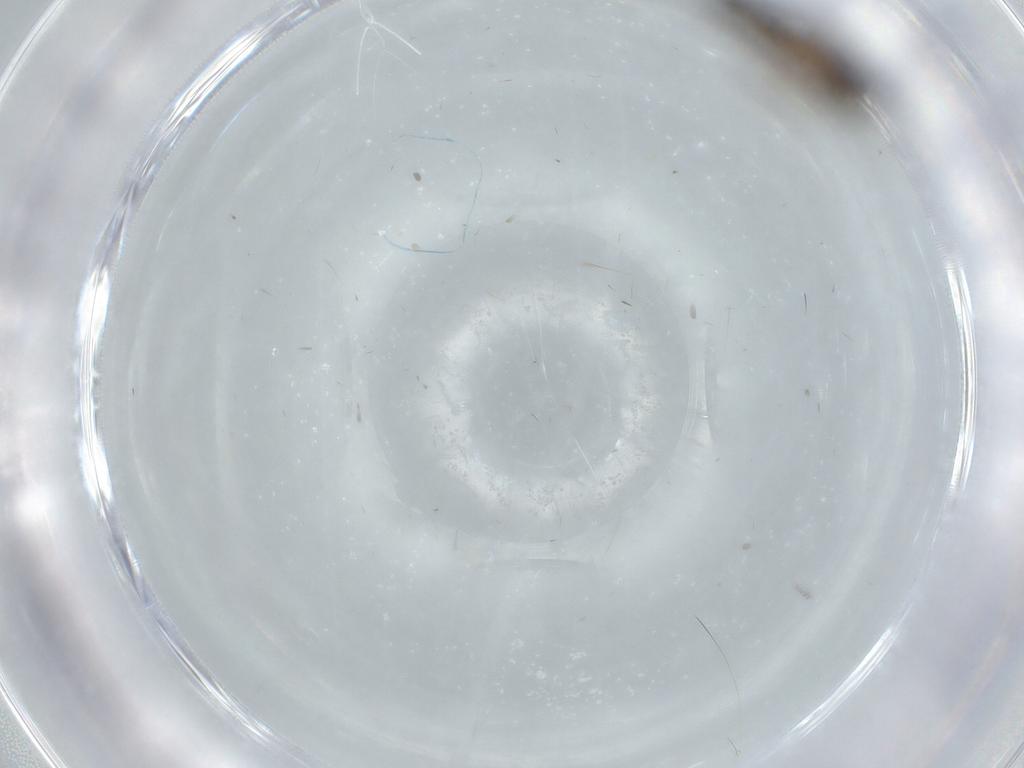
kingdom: Animalia
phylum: Arthropoda
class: Insecta
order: Hymenoptera
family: Diapriidae
